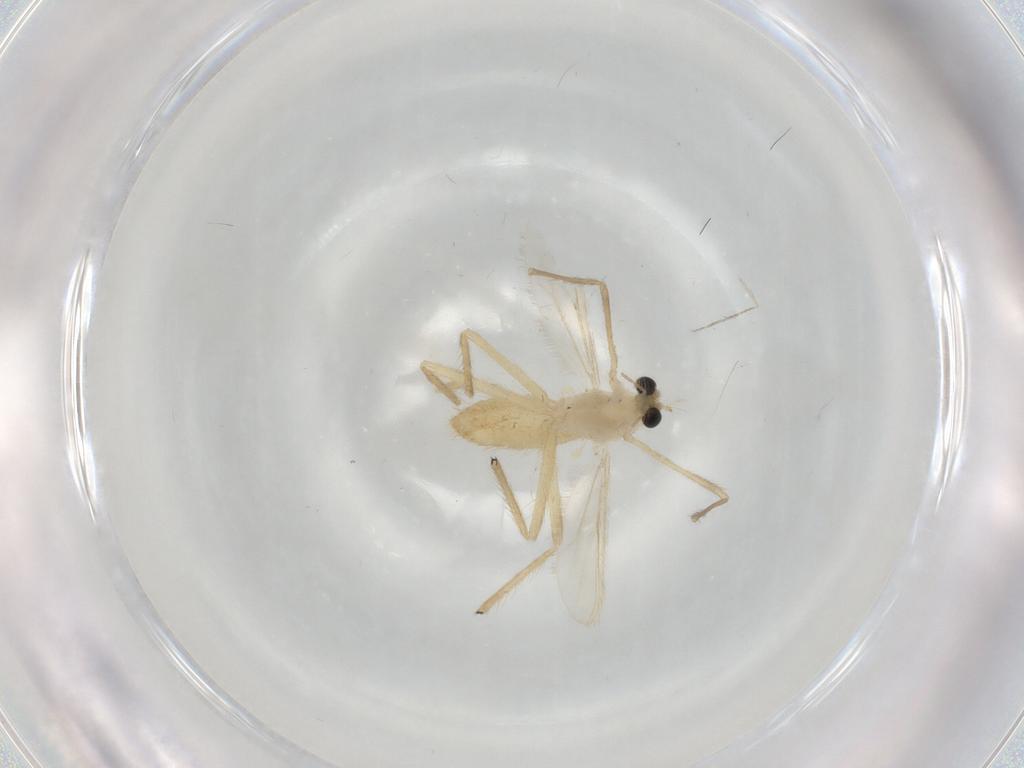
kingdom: Animalia
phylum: Arthropoda
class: Insecta
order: Diptera
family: Chironomidae
